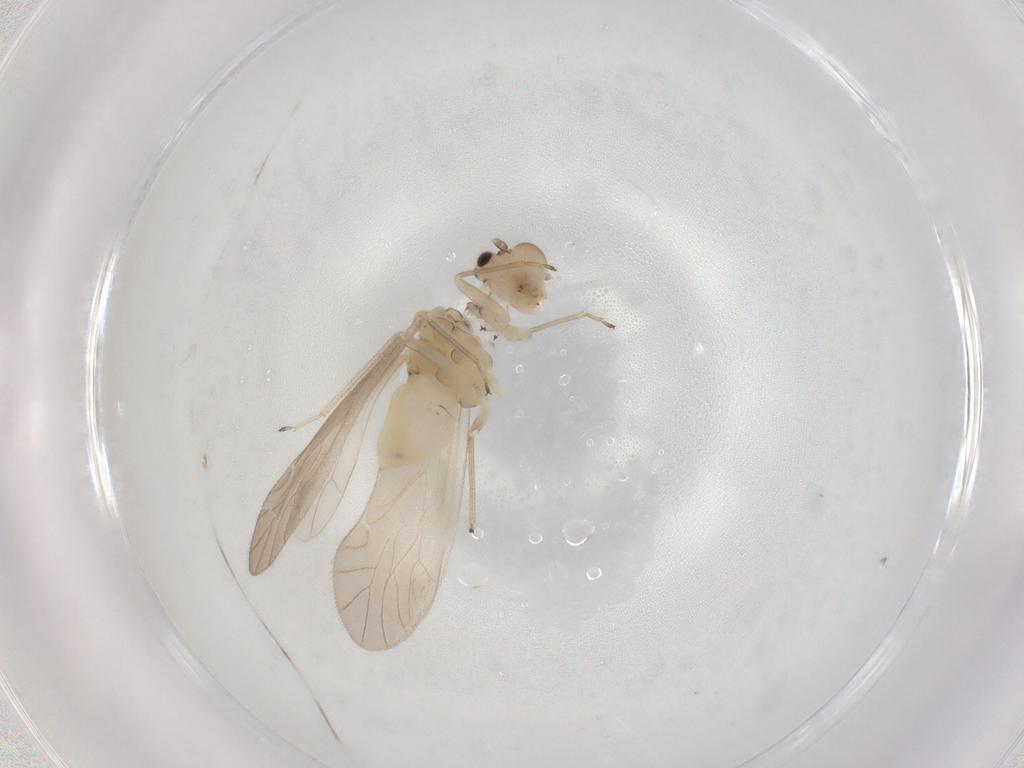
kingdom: Animalia
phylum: Arthropoda
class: Insecta
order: Psocodea
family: Caeciliusidae
